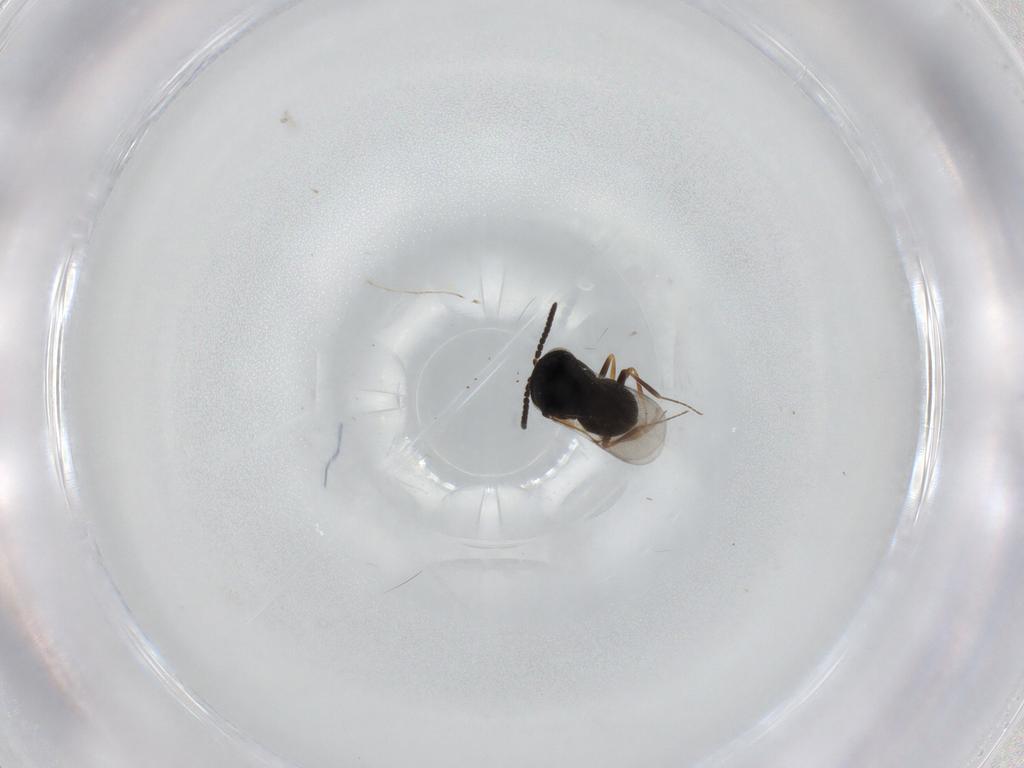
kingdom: Animalia
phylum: Arthropoda
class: Insecta
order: Hymenoptera
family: Scelionidae
